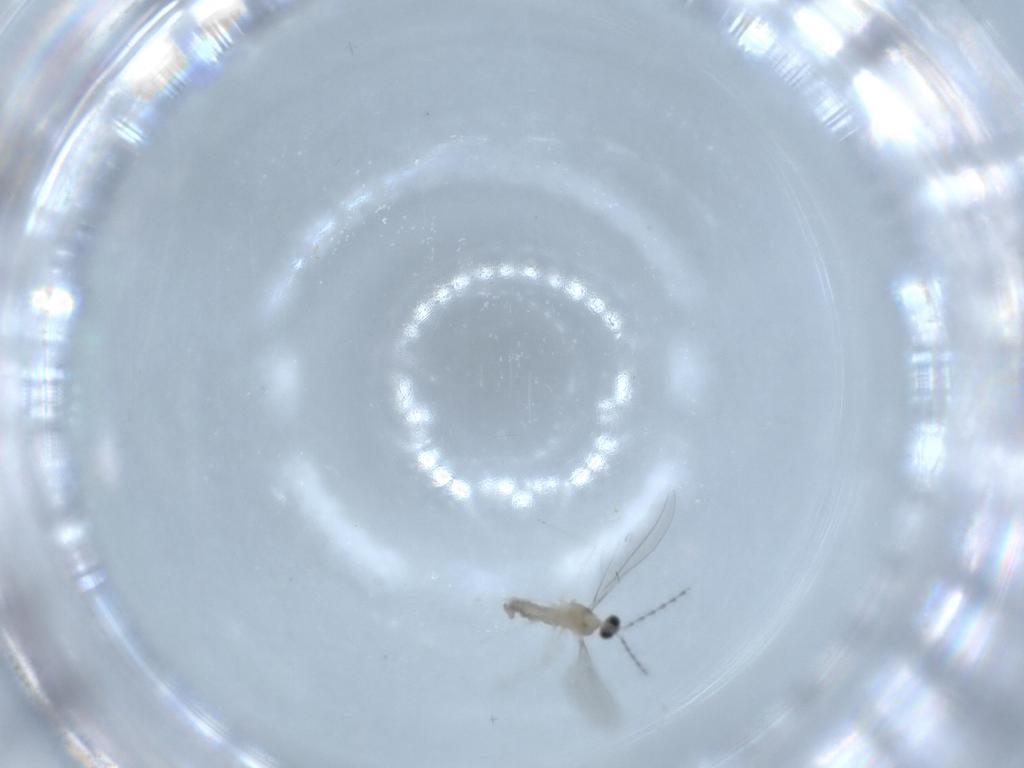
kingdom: Animalia
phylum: Arthropoda
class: Insecta
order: Diptera
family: Cecidomyiidae
